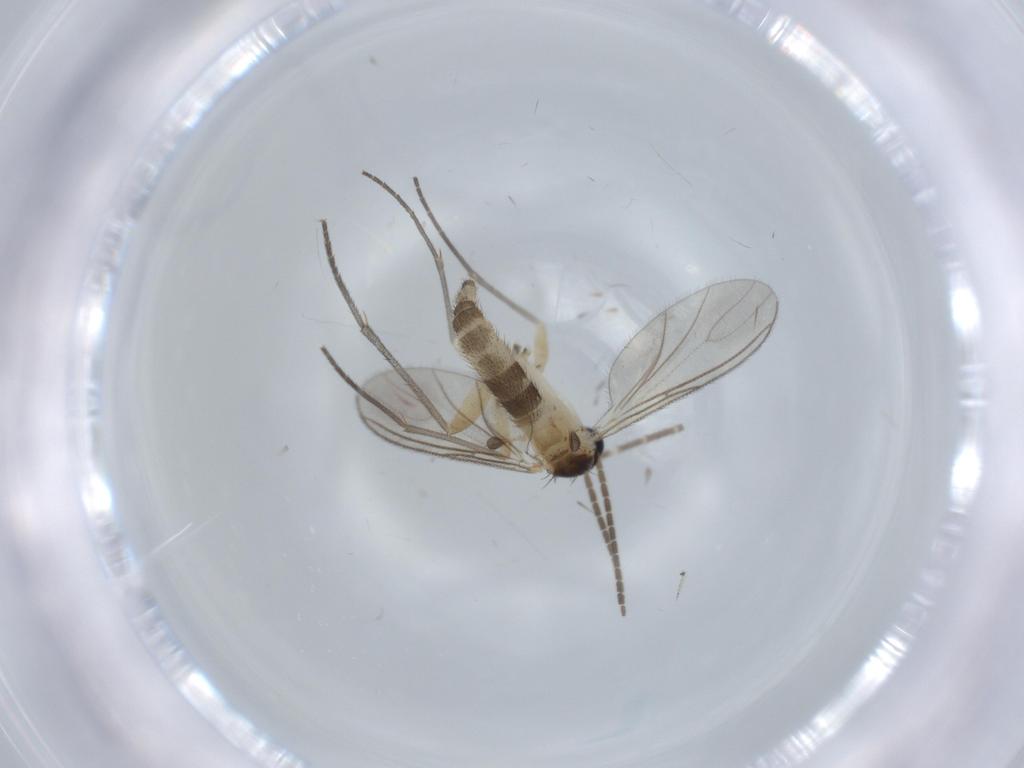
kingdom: Animalia
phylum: Arthropoda
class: Insecta
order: Diptera
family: Sciaridae
